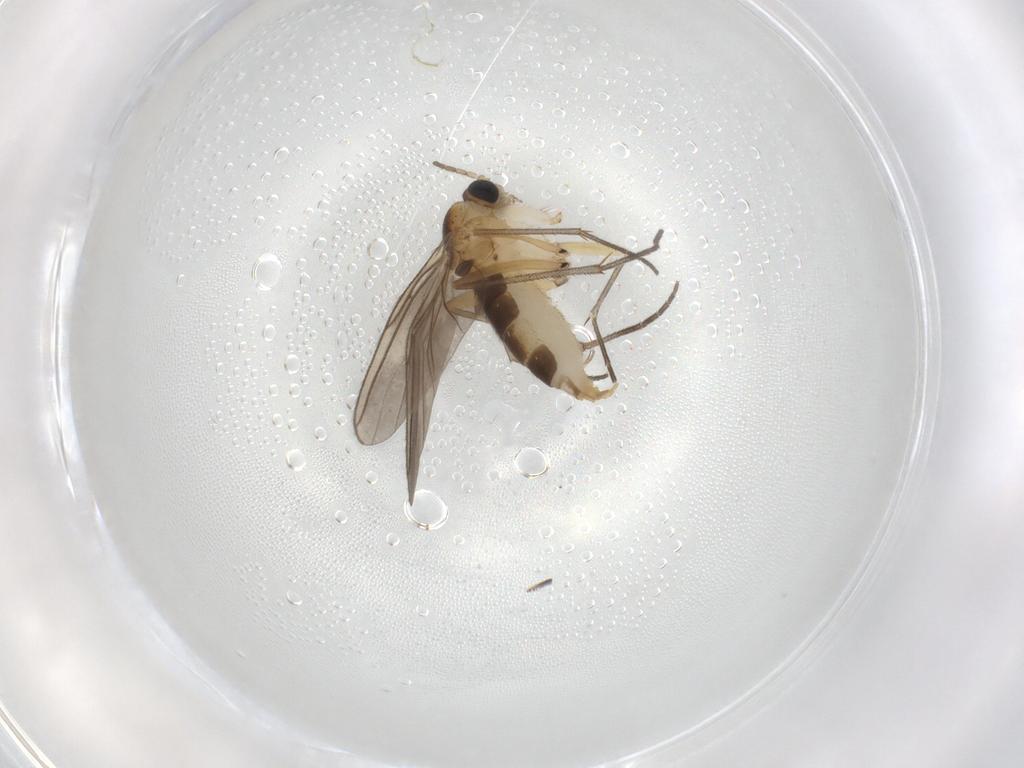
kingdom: Animalia
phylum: Arthropoda
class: Insecta
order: Diptera
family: Sciaridae
